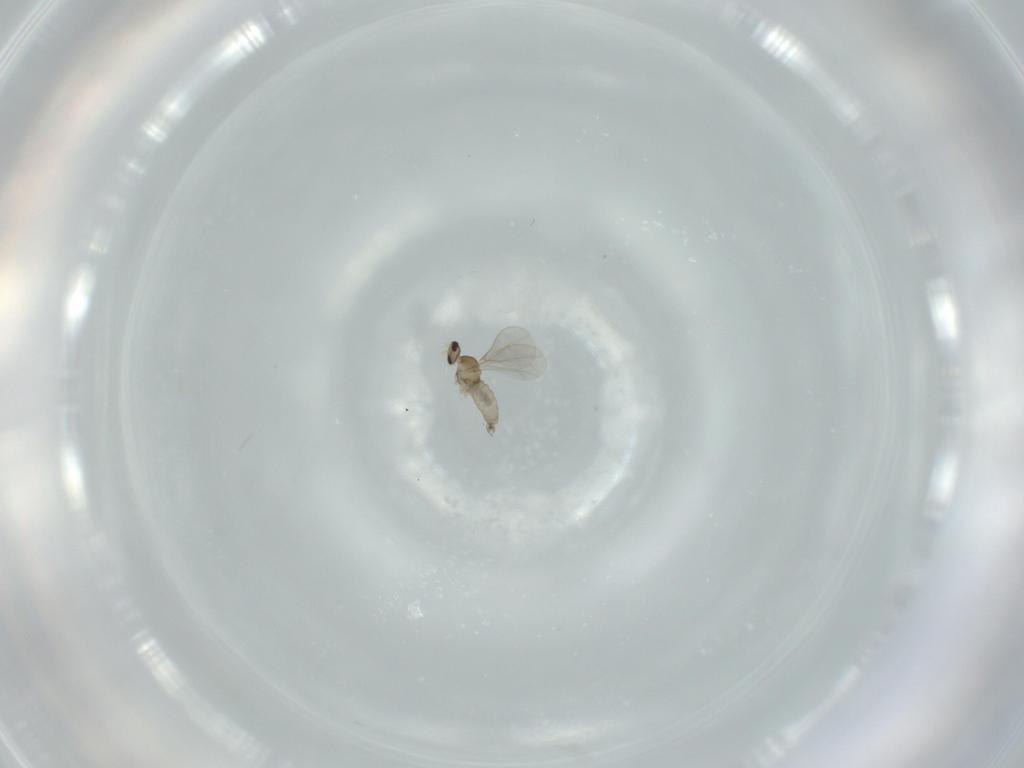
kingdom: Animalia
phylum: Arthropoda
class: Insecta
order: Diptera
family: Cecidomyiidae
